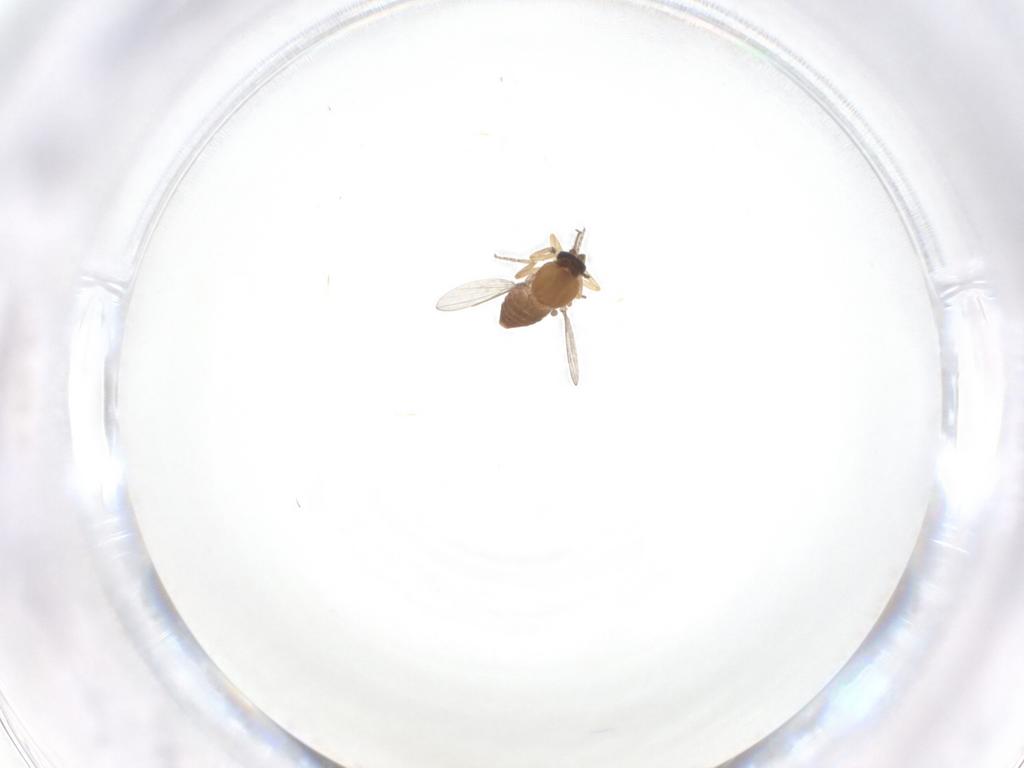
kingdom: Animalia
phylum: Arthropoda
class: Insecta
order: Diptera
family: Ceratopogonidae
